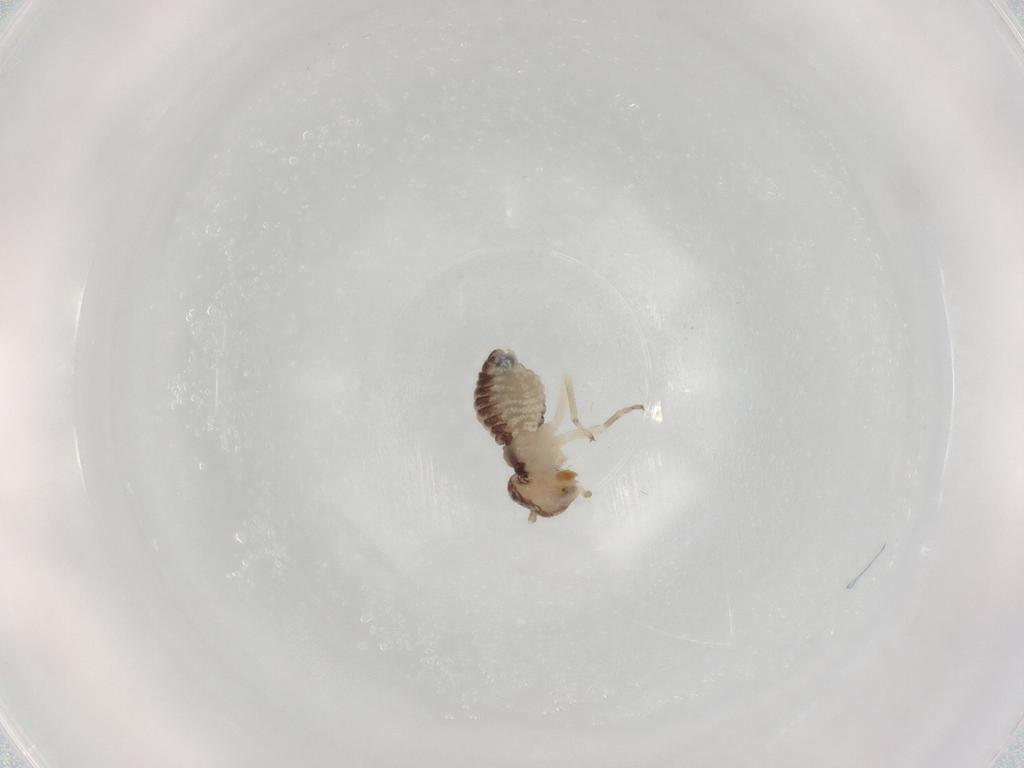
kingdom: Animalia
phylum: Arthropoda
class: Insecta
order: Psocodea
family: Myopsocidae
